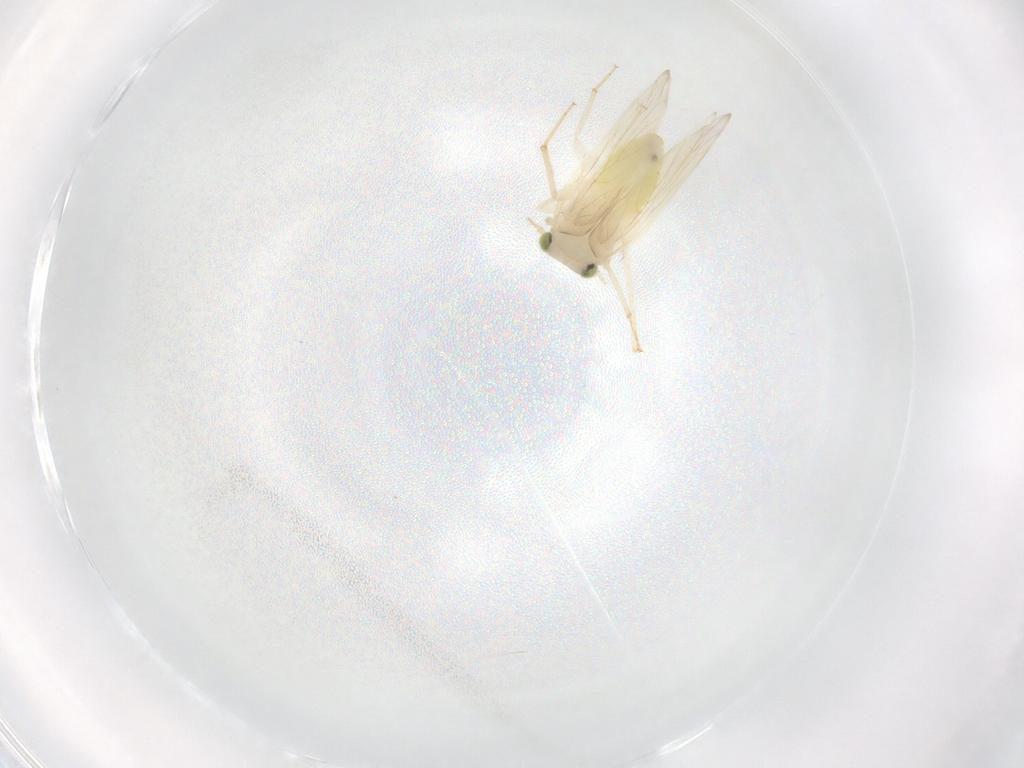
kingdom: Animalia
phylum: Arthropoda
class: Insecta
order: Psocodea
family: Lepidopsocidae
